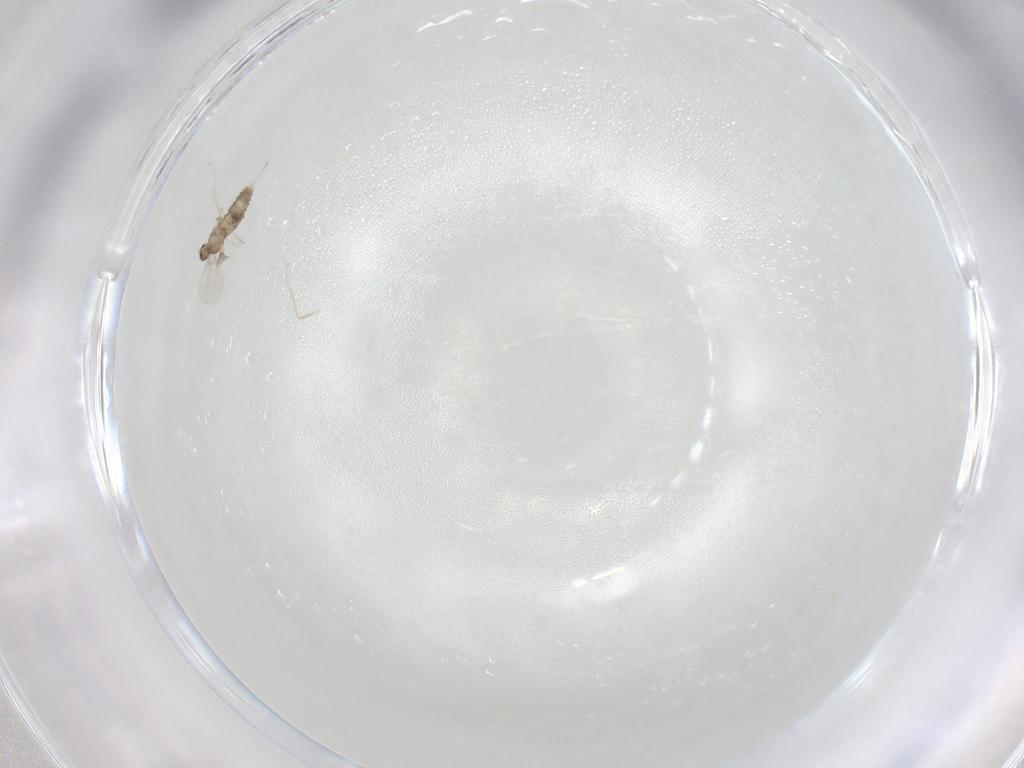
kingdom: Animalia
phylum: Arthropoda
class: Insecta
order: Diptera
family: Cecidomyiidae
